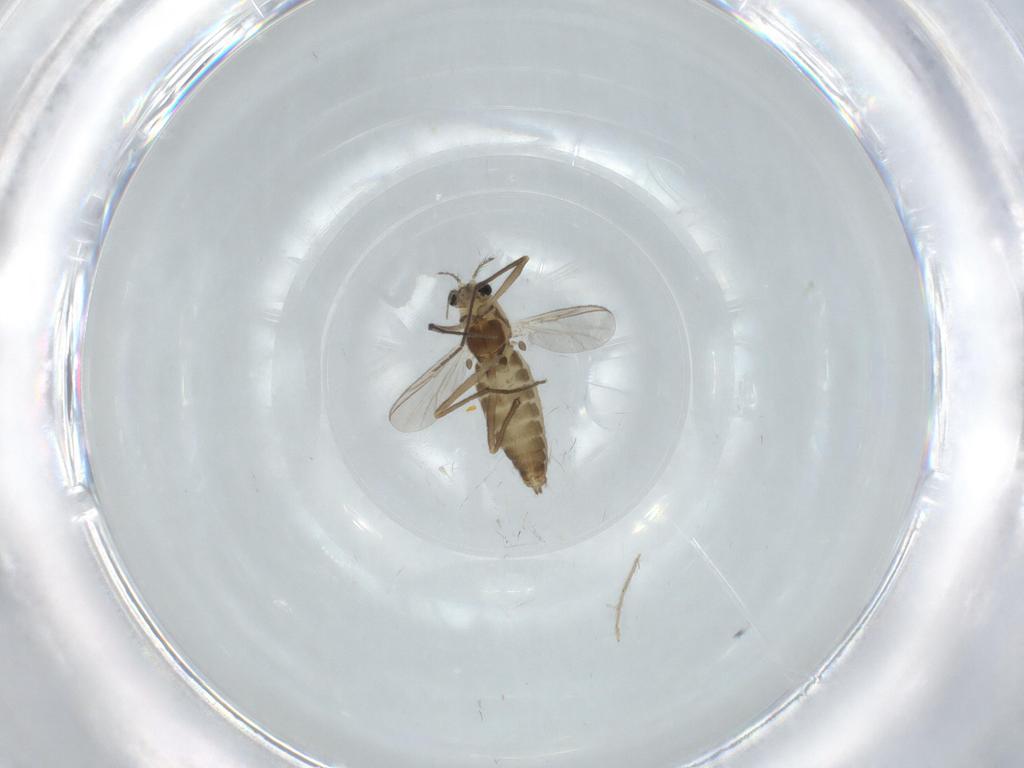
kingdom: Animalia
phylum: Arthropoda
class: Insecta
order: Diptera
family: Chironomidae
